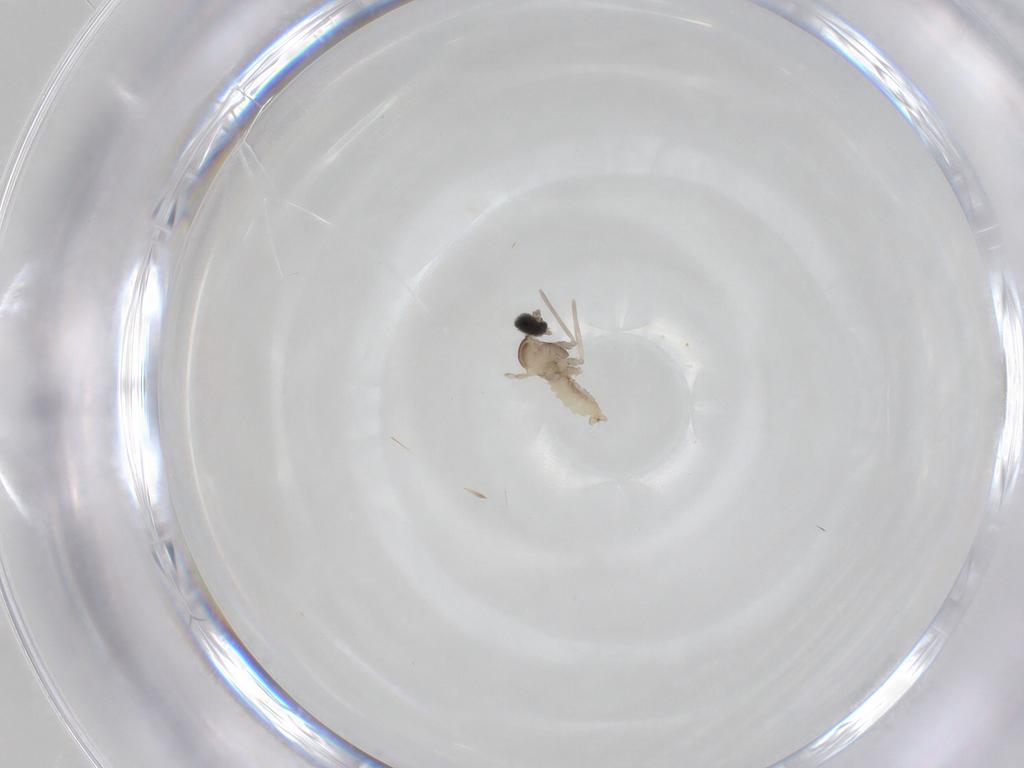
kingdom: Animalia
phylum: Arthropoda
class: Insecta
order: Diptera
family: Cecidomyiidae
